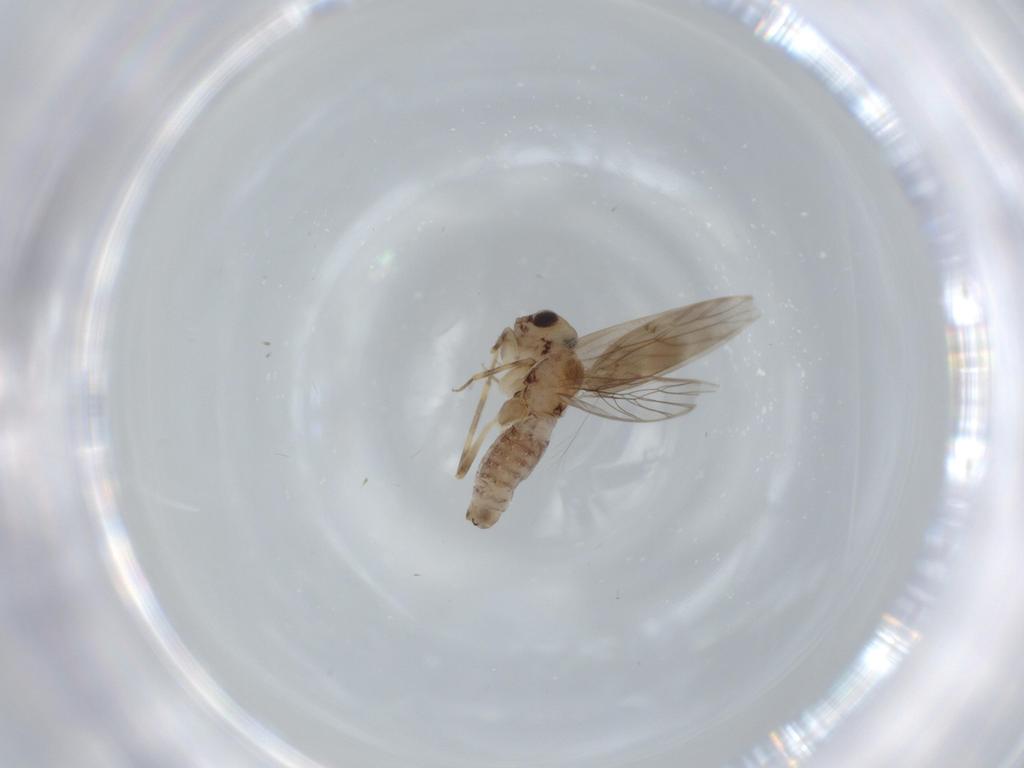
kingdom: Animalia
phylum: Arthropoda
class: Insecta
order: Psocodea
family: Lepidopsocidae
